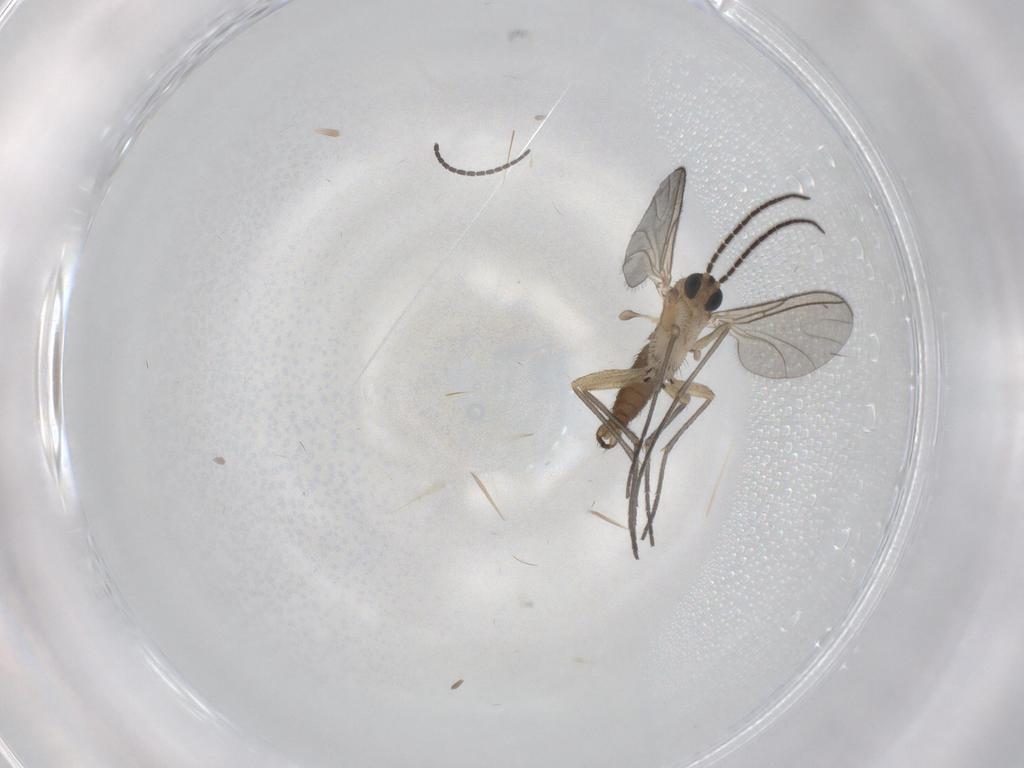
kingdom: Animalia
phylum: Arthropoda
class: Insecta
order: Diptera
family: Sciaridae
